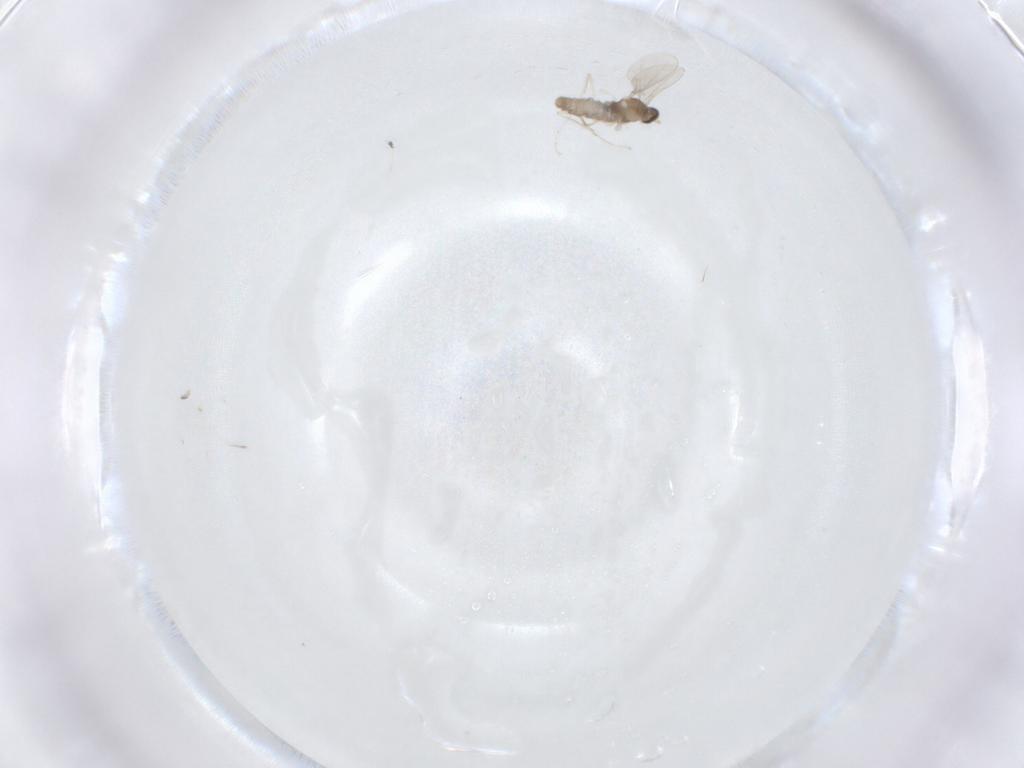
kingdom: Animalia
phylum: Arthropoda
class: Insecta
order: Diptera
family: Cecidomyiidae
